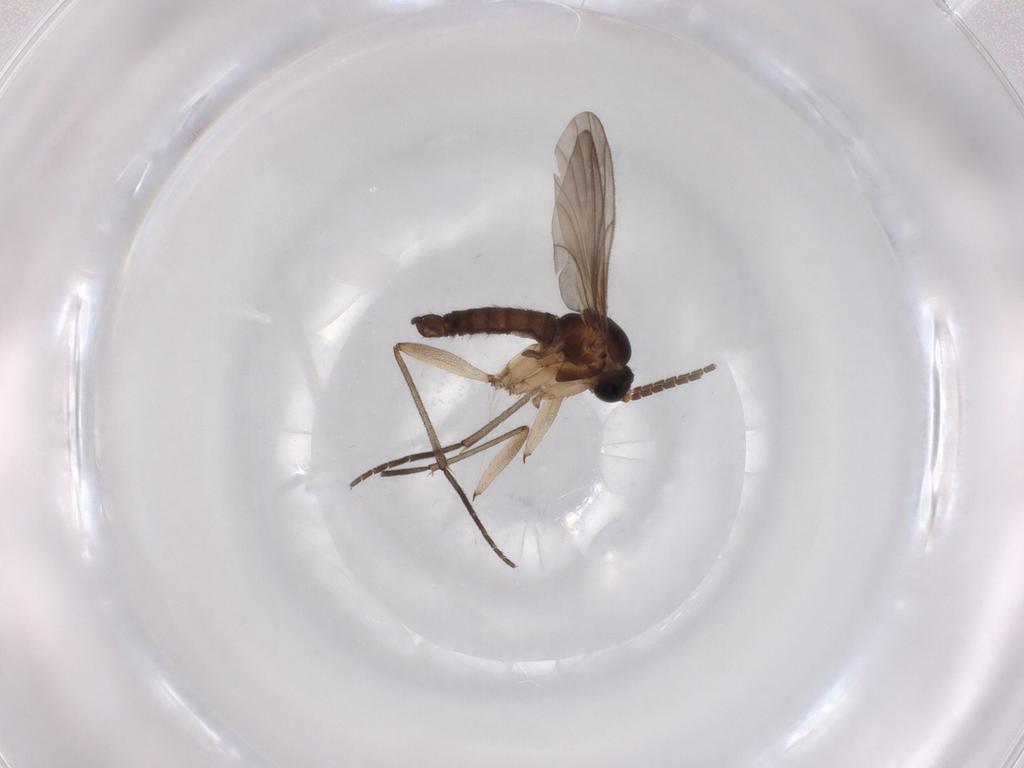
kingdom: Animalia
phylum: Arthropoda
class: Insecta
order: Diptera
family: Sciaridae
